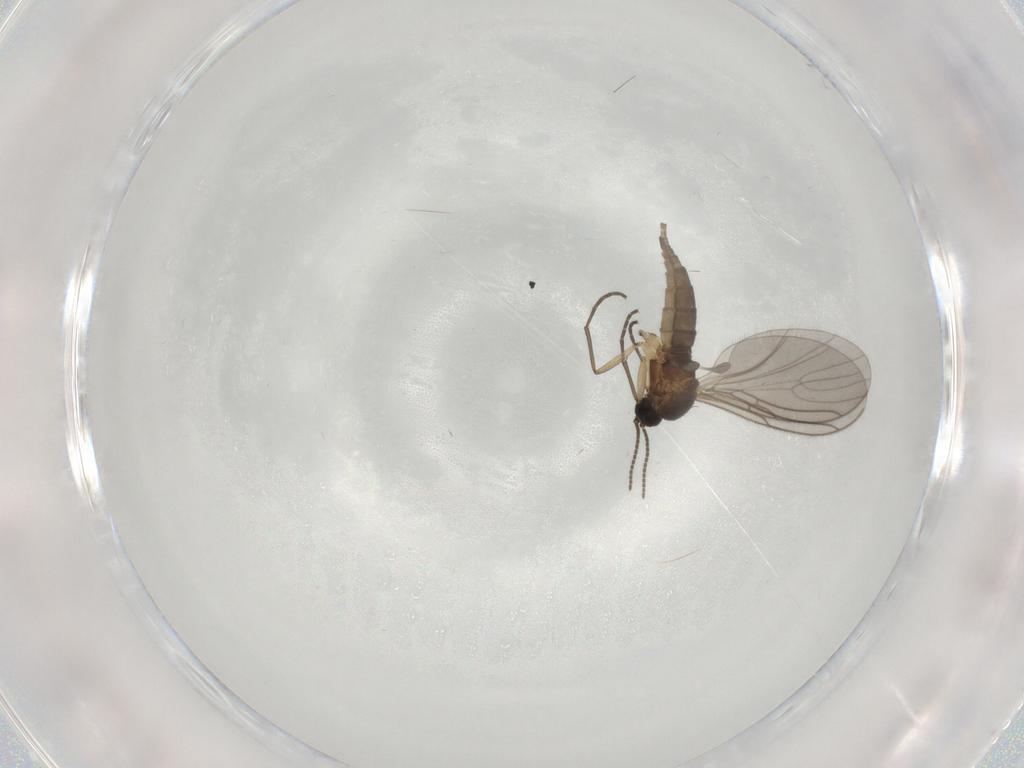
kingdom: Animalia
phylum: Arthropoda
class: Insecta
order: Diptera
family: Sciaridae
